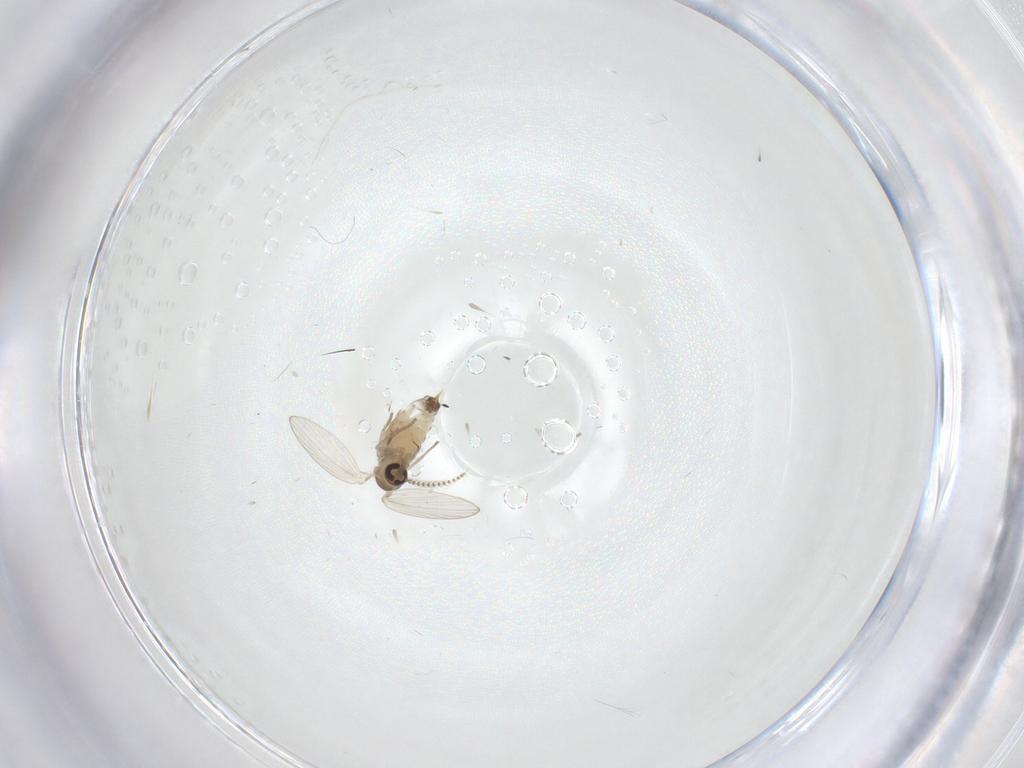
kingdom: Animalia
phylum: Arthropoda
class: Insecta
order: Diptera
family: Psychodidae
